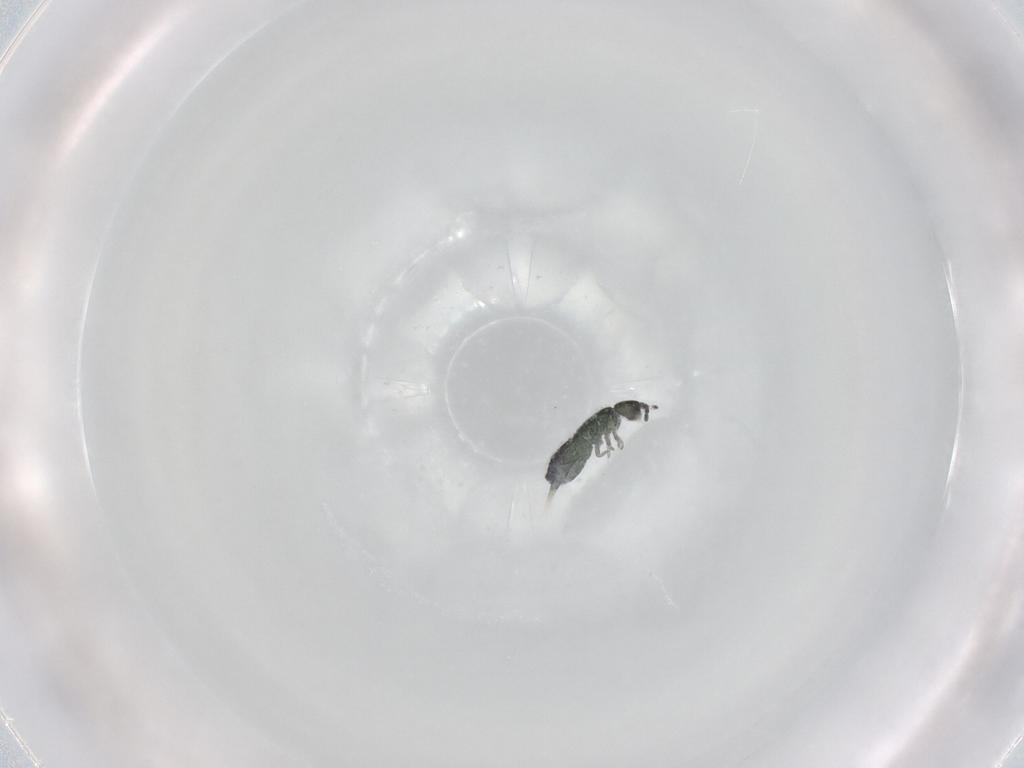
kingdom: Animalia
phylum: Arthropoda
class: Collembola
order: Entomobryomorpha
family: Isotomidae
